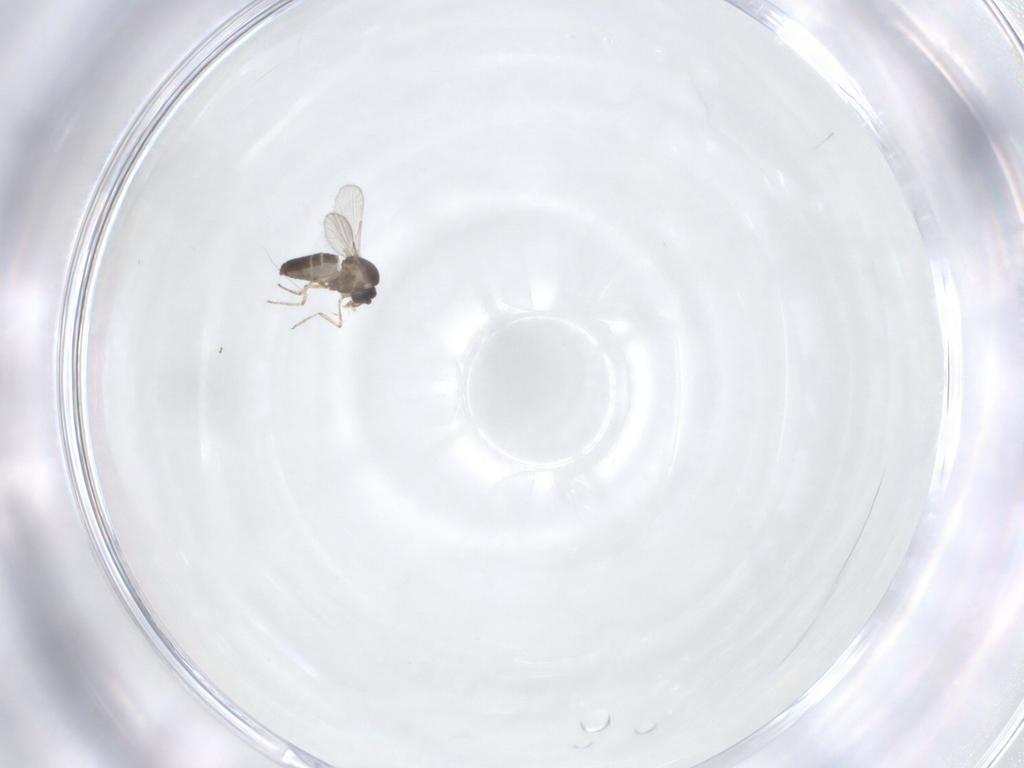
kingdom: Animalia
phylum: Arthropoda
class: Insecta
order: Diptera
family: Ceratopogonidae
